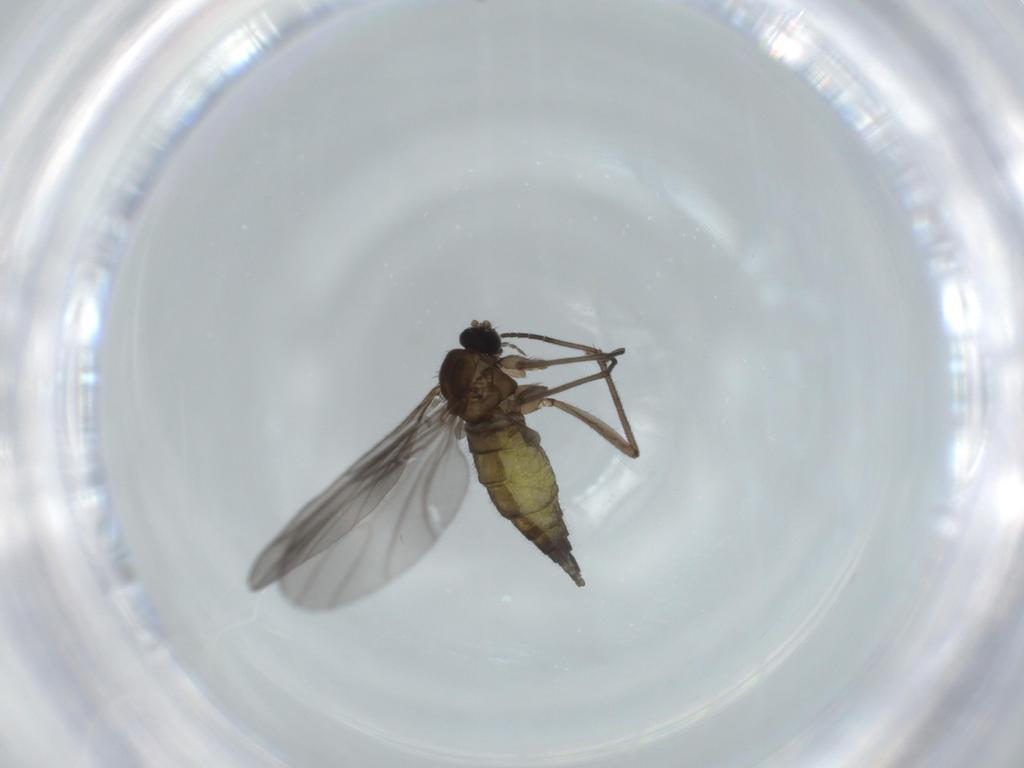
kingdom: Animalia
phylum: Arthropoda
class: Insecta
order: Diptera
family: Sciaridae
